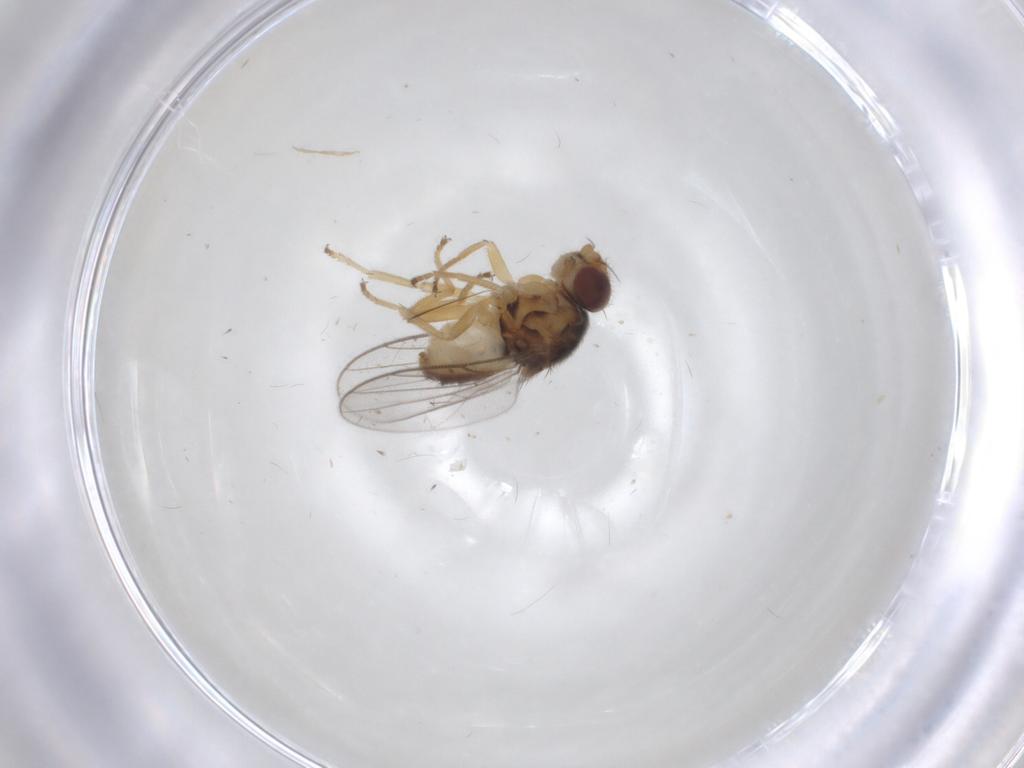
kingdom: Animalia
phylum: Arthropoda
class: Insecta
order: Diptera
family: Chloropidae
